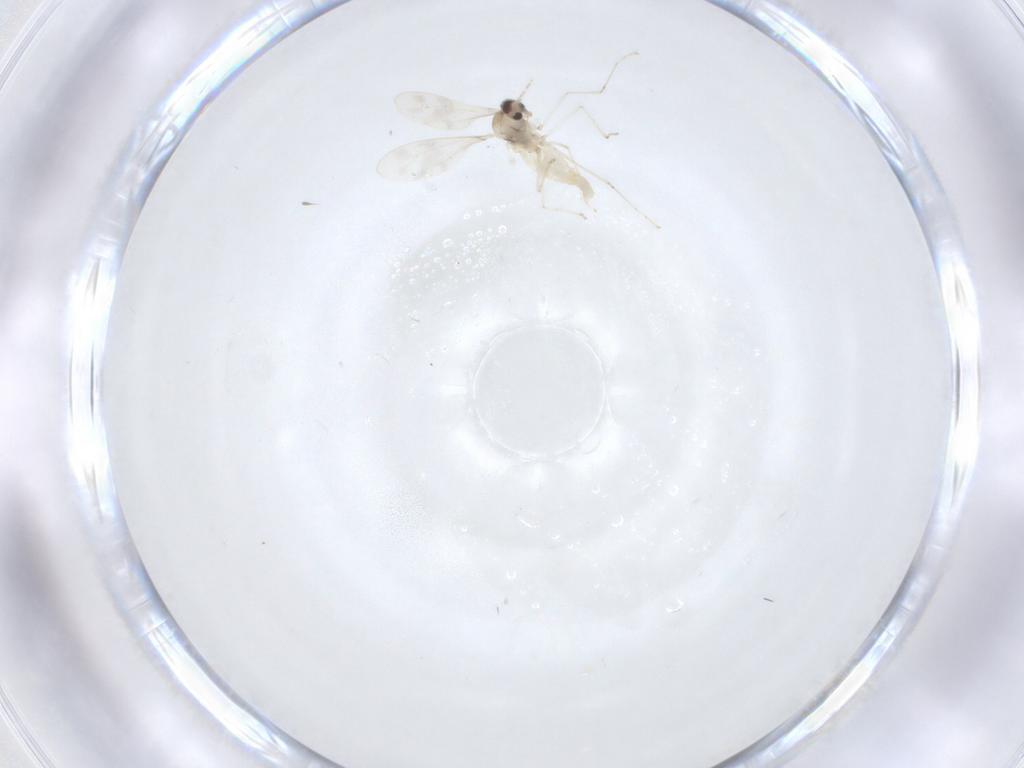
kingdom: Animalia
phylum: Arthropoda
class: Insecta
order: Diptera
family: Cecidomyiidae
